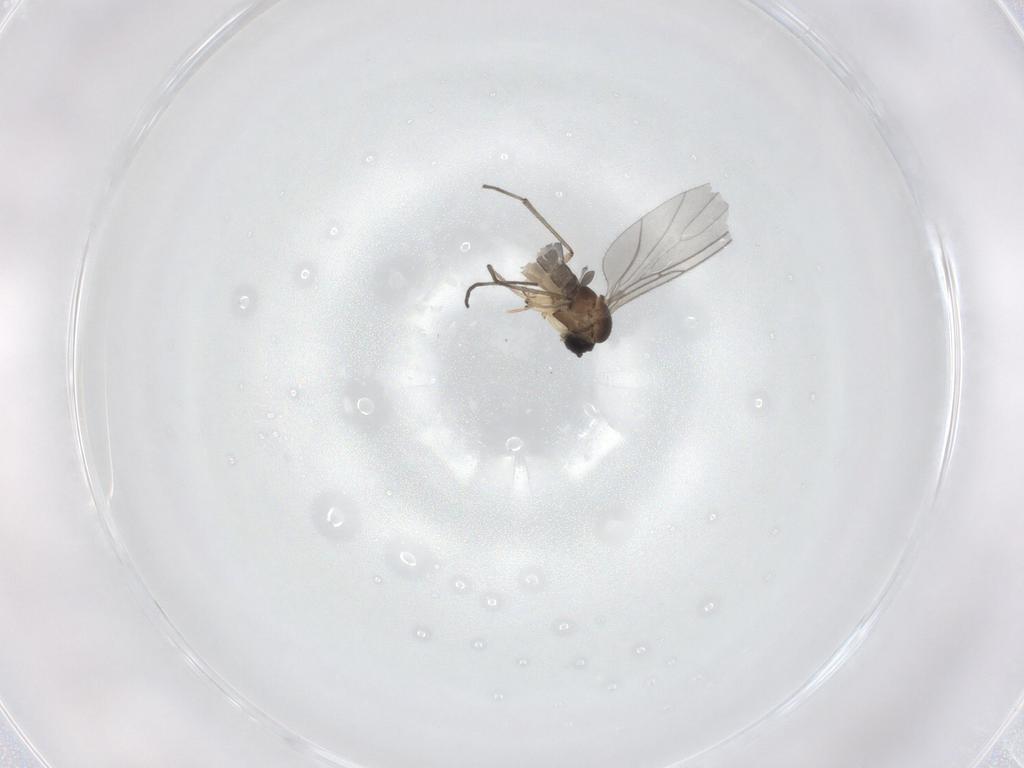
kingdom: Animalia
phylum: Arthropoda
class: Insecta
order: Diptera
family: Sciaridae
